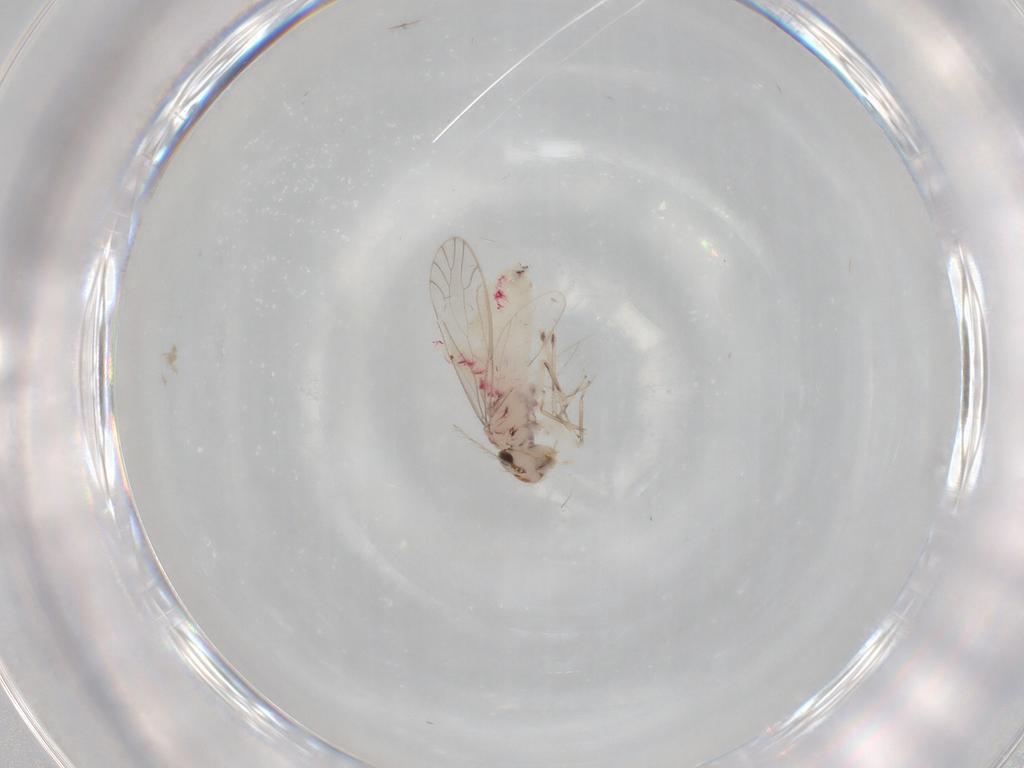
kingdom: Animalia
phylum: Arthropoda
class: Insecta
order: Psocodea
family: Caeciliusidae
